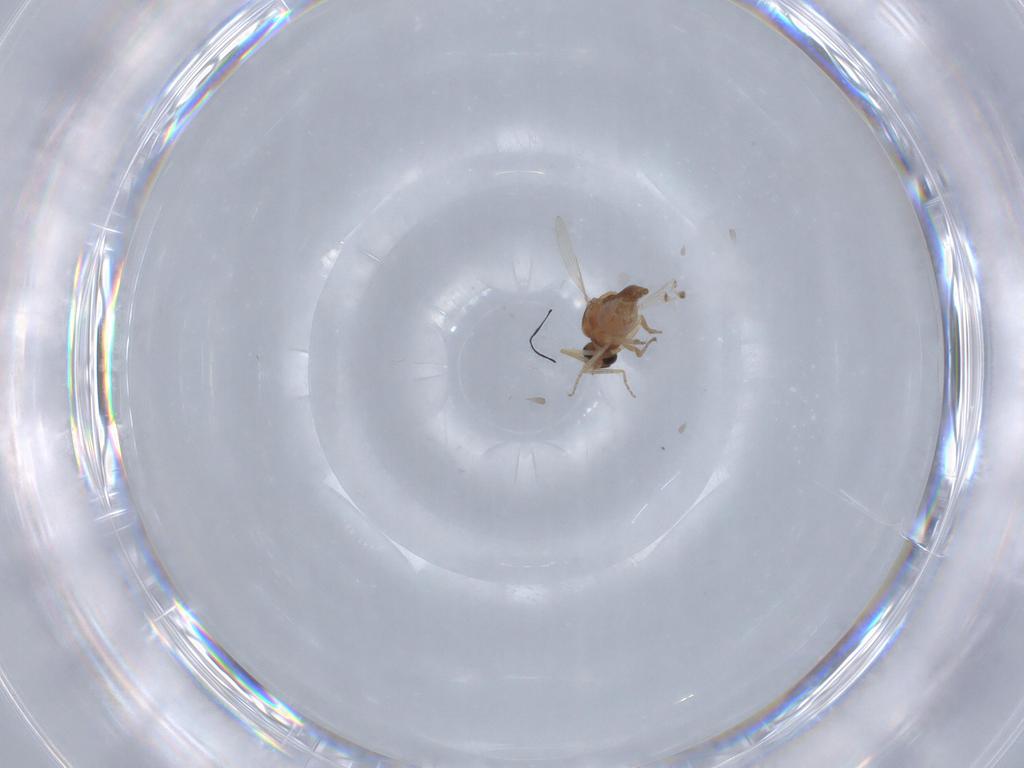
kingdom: Animalia
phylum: Arthropoda
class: Insecta
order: Diptera
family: Ceratopogonidae
